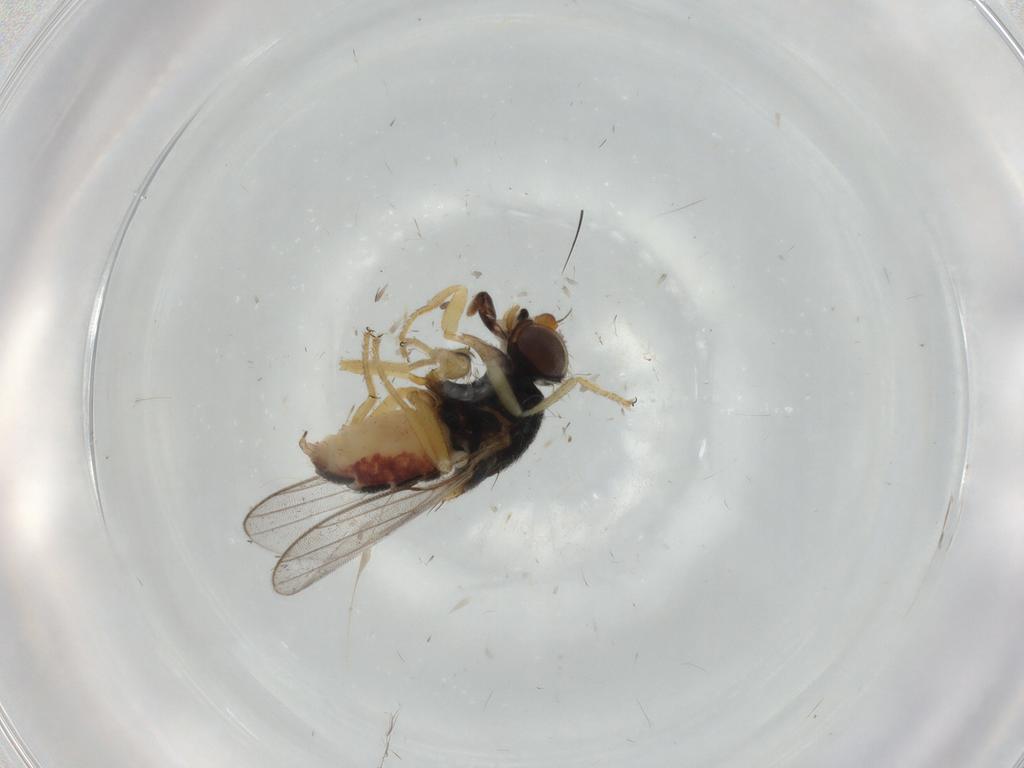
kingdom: Animalia
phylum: Arthropoda
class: Insecta
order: Diptera
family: Chloropidae
